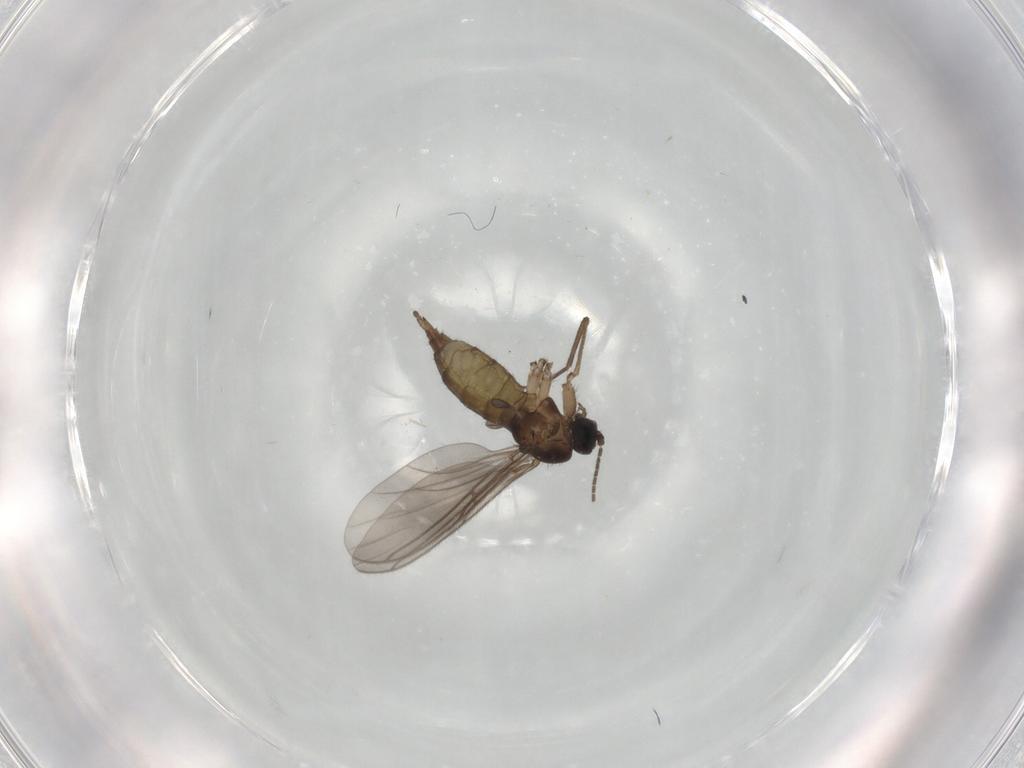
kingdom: Animalia
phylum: Arthropoda
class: Insecta
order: Diptera
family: Sciaridae
